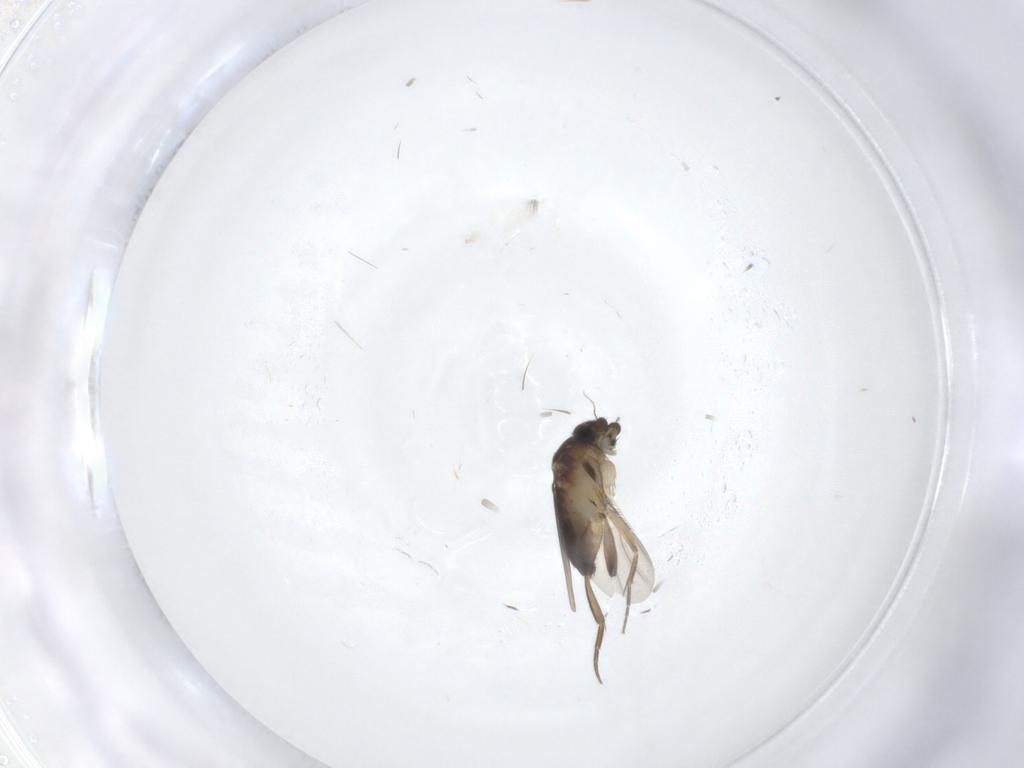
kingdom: Animalia
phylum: Arthropoda
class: Insecta
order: Diptera
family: Phoridae
